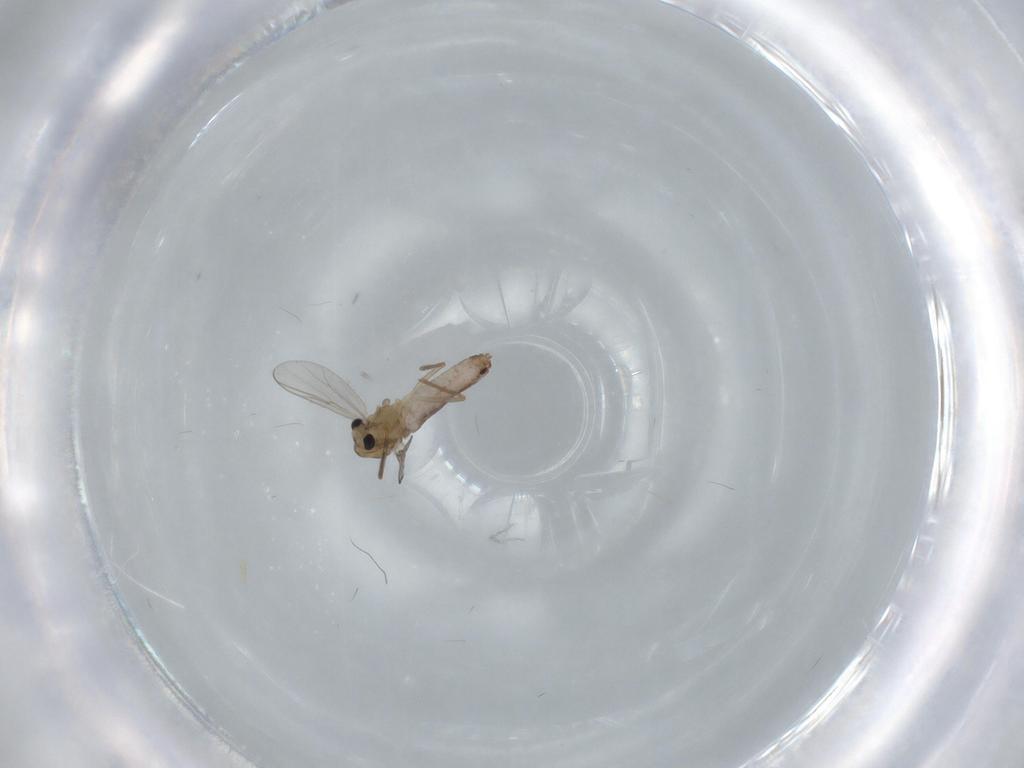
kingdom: Animalia
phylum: Arthropoda
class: Insecta
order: Diptera
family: Chironomidae
